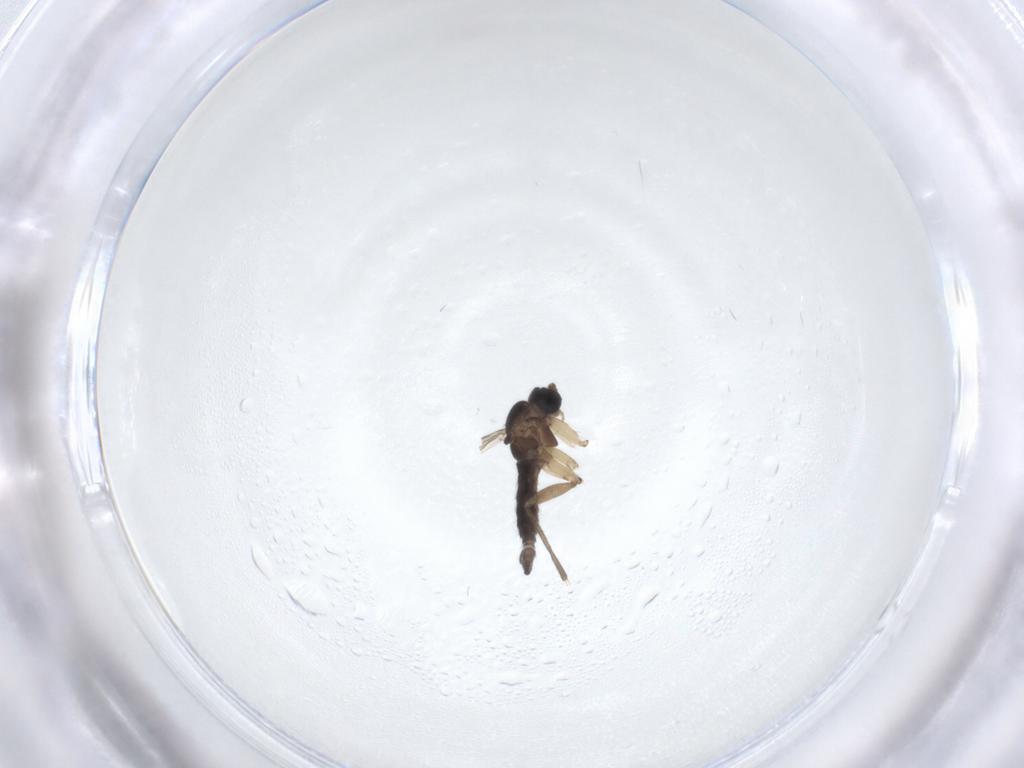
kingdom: Animalia
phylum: Arthropoda
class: Insecta
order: Diptera
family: Sciaridae
